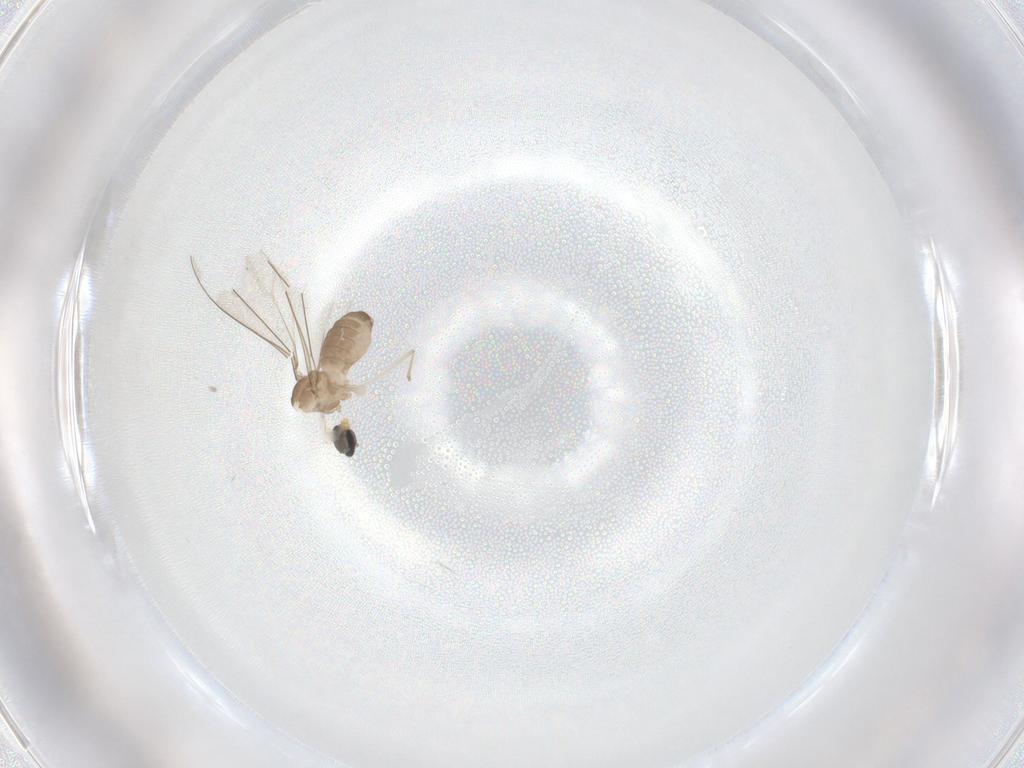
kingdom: Animalia
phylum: Arthropoda
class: Insecta
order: Diptera
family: Cecidomyiidae
